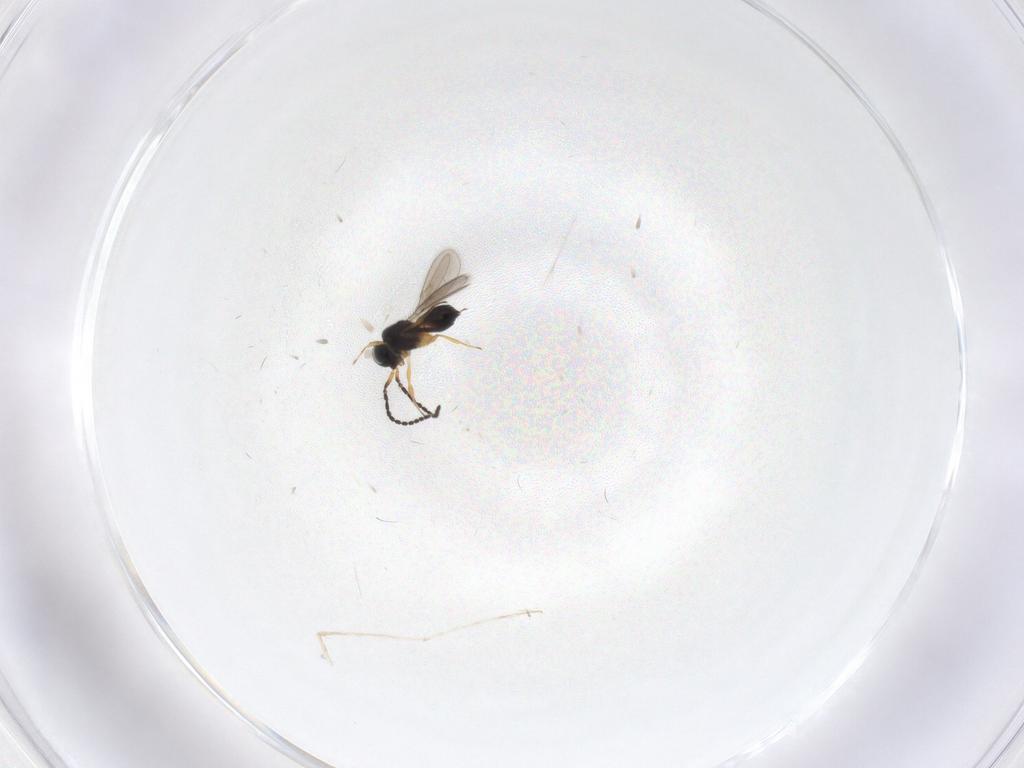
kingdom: Animalia
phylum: Arthropoda
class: Insecta
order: Hymenoptera
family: Scelionidae
